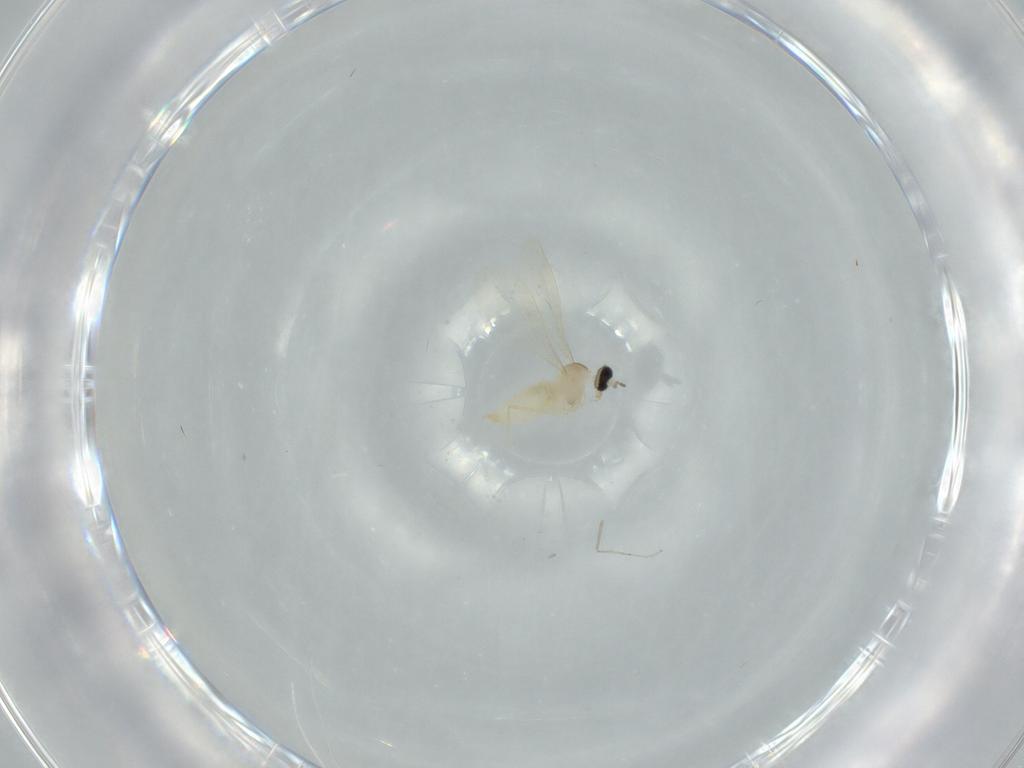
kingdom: Animalia
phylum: Arthropoda
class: Insecta
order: Diptera
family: Cecidomyiidae
